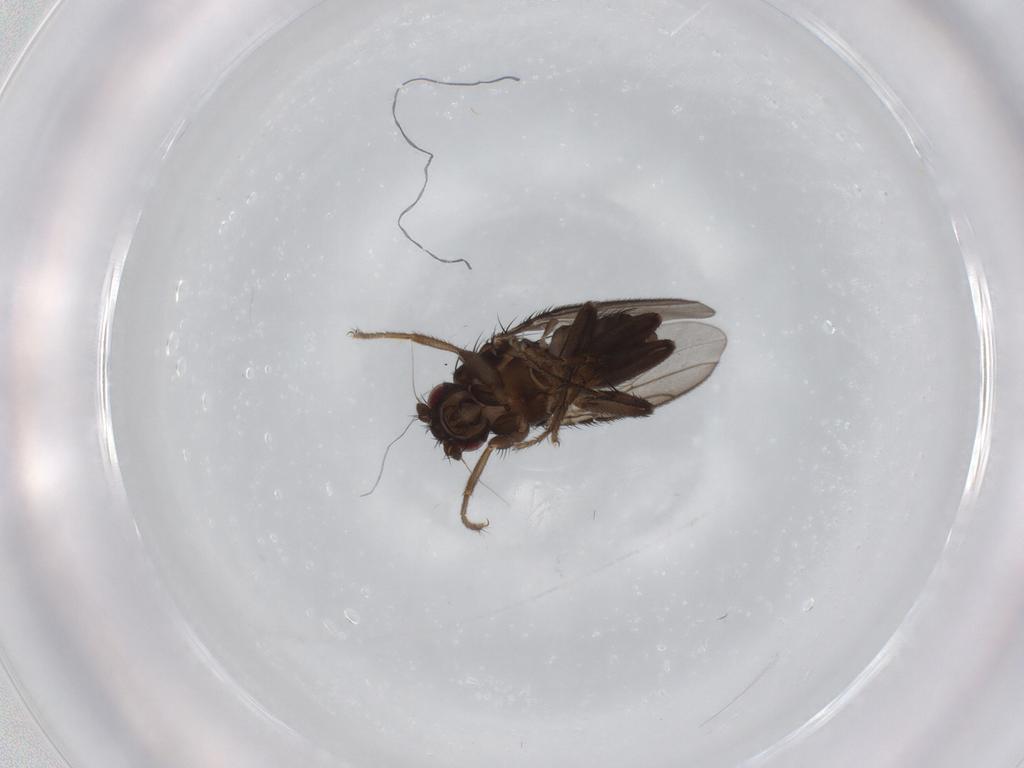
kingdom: Animalia
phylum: Arthropoda
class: Insecta
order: Diptera
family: Sphaeroceridae
